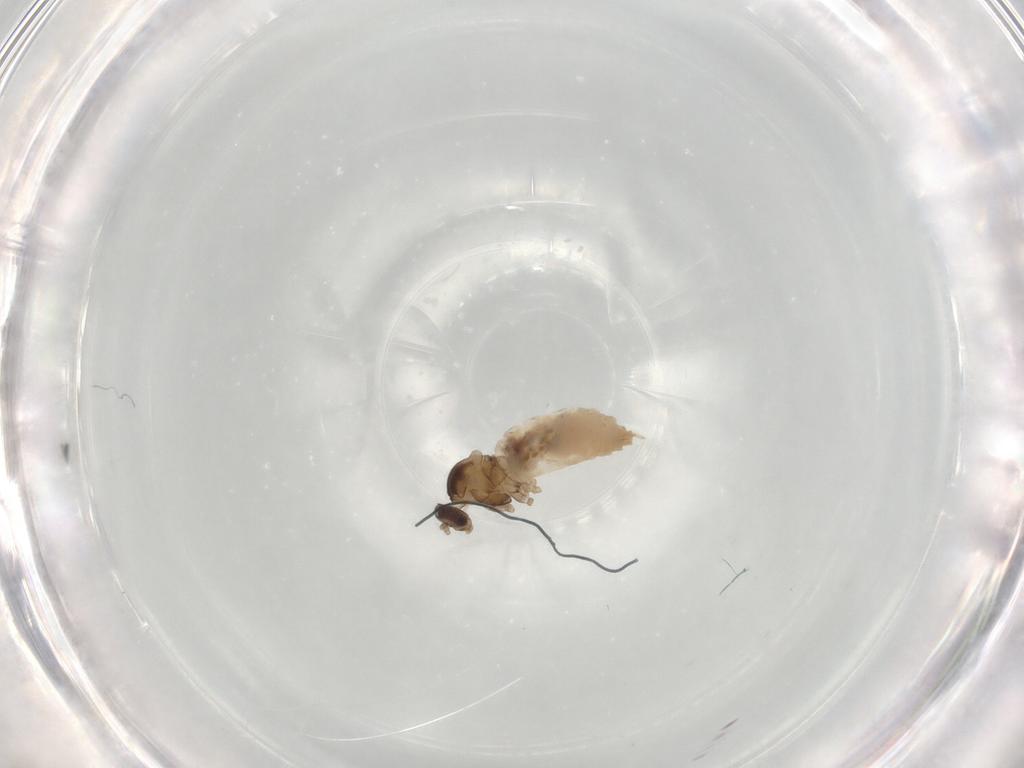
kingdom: Animalia
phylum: Arthropoda
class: Insecta
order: Diptera
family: Cecidomyiidae
